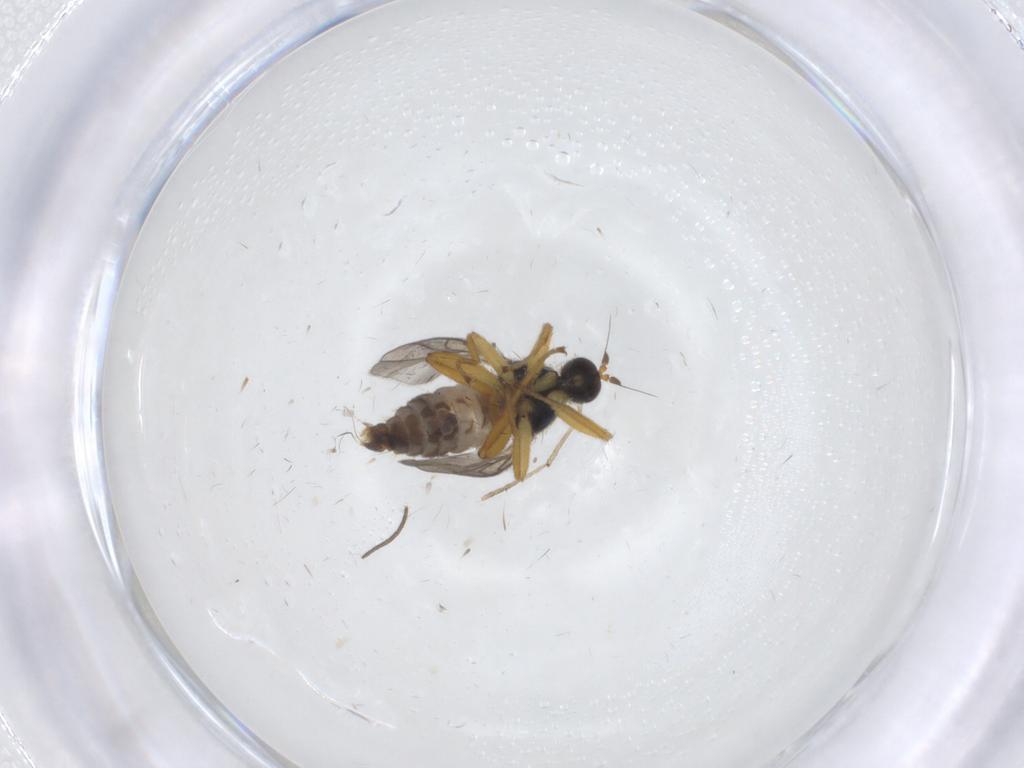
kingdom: Animalia
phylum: Arthropoda
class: Insecta
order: Diptera
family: Hybotidae
